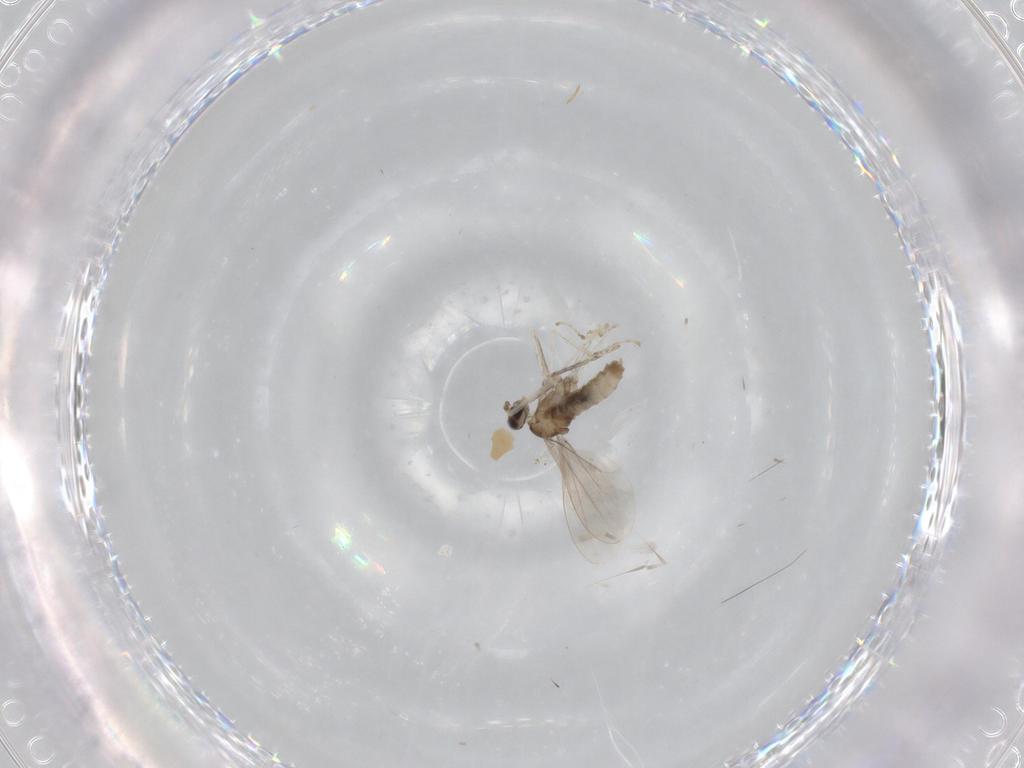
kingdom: Animalia
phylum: Arthropoda
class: Insecta
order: Diptera
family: Cecidomyiidae
